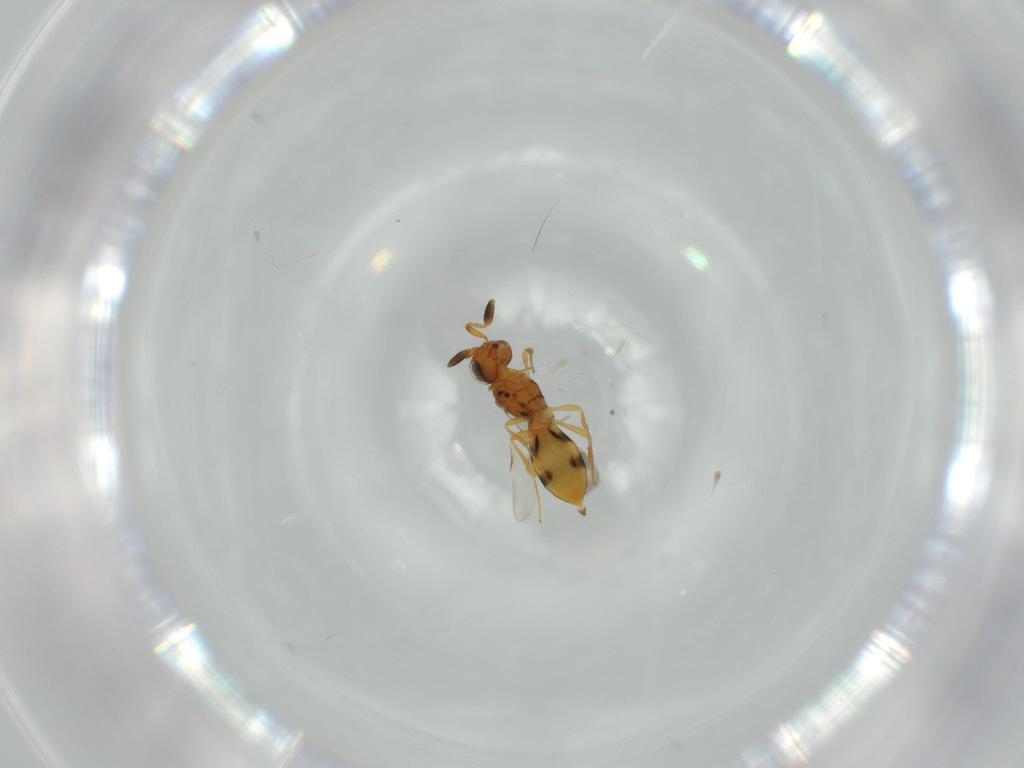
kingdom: Animalia
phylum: Arthropoda
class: Insecta
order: Hymenoptera
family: Scelionidae
